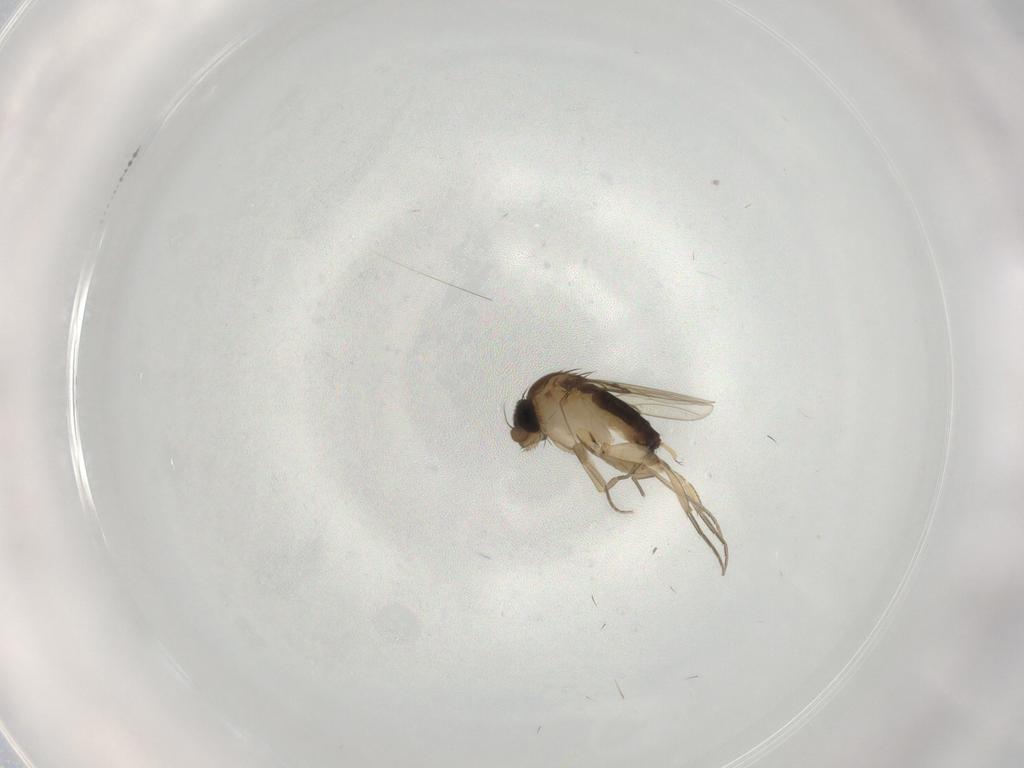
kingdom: Animalia
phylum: Arthropoda
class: Insecta
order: Diptera
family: Phoridae
